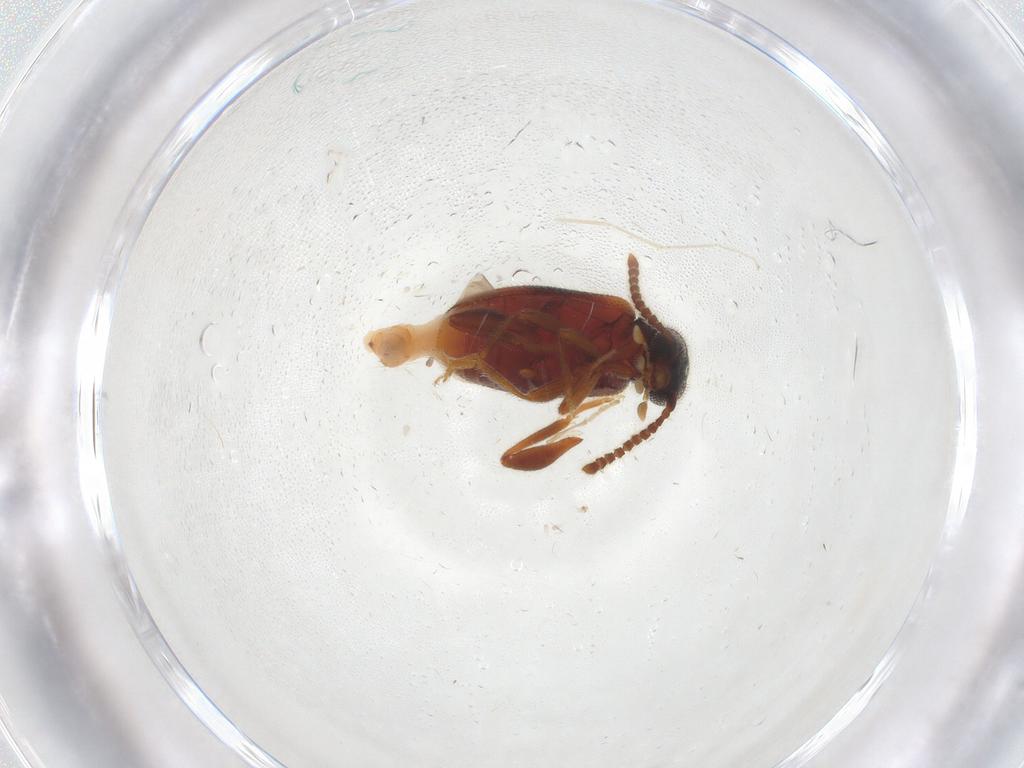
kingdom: Animalia
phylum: Arthropoda
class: Insecta
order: Coleoptera
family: Aderidae
